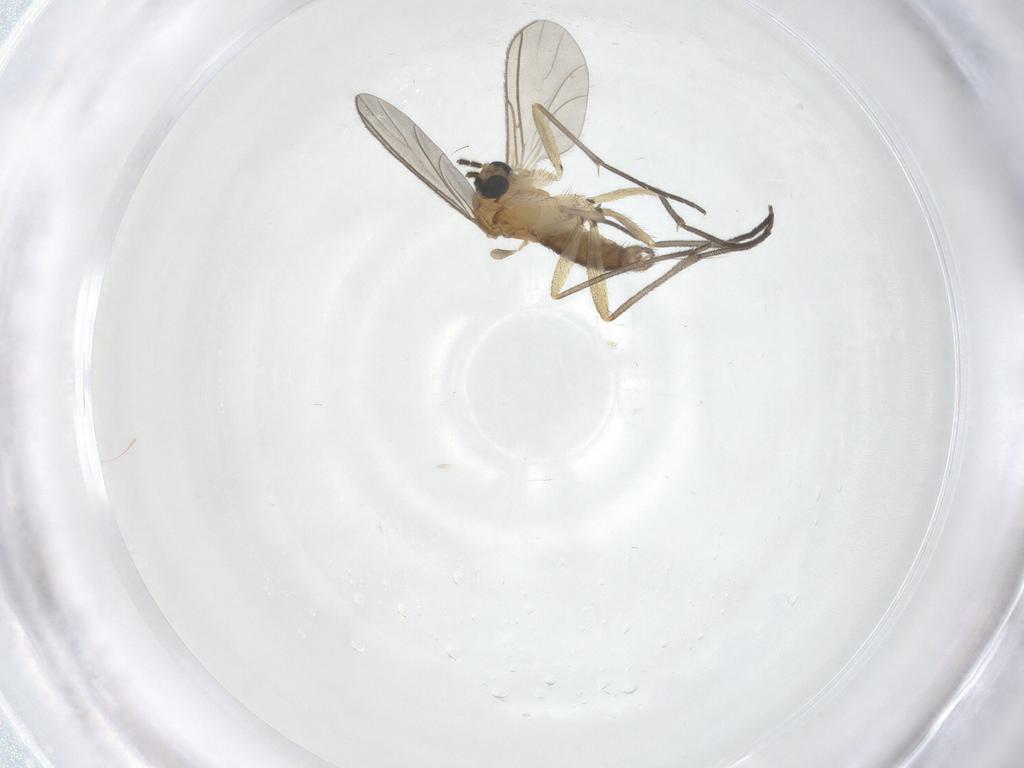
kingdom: Animalia
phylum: Arthropoda
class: Insecta
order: Diptera
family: Sciaridae
